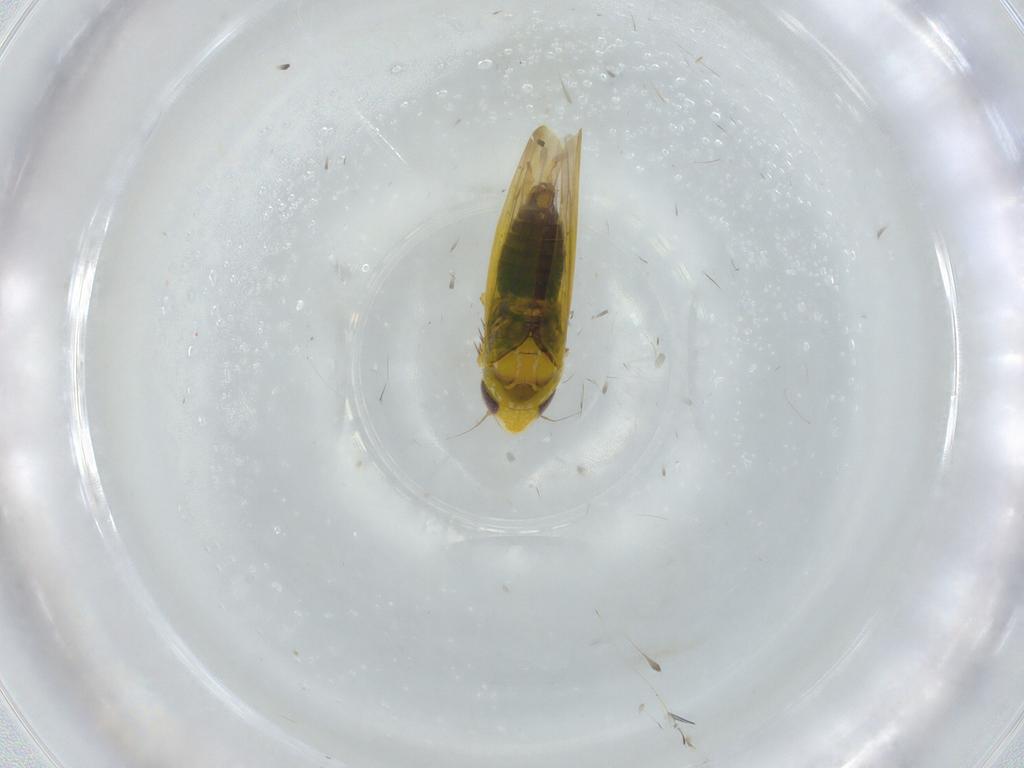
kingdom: Animalia
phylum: Arthropoda
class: Insecta
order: Hemiptera
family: Cicadellidae
